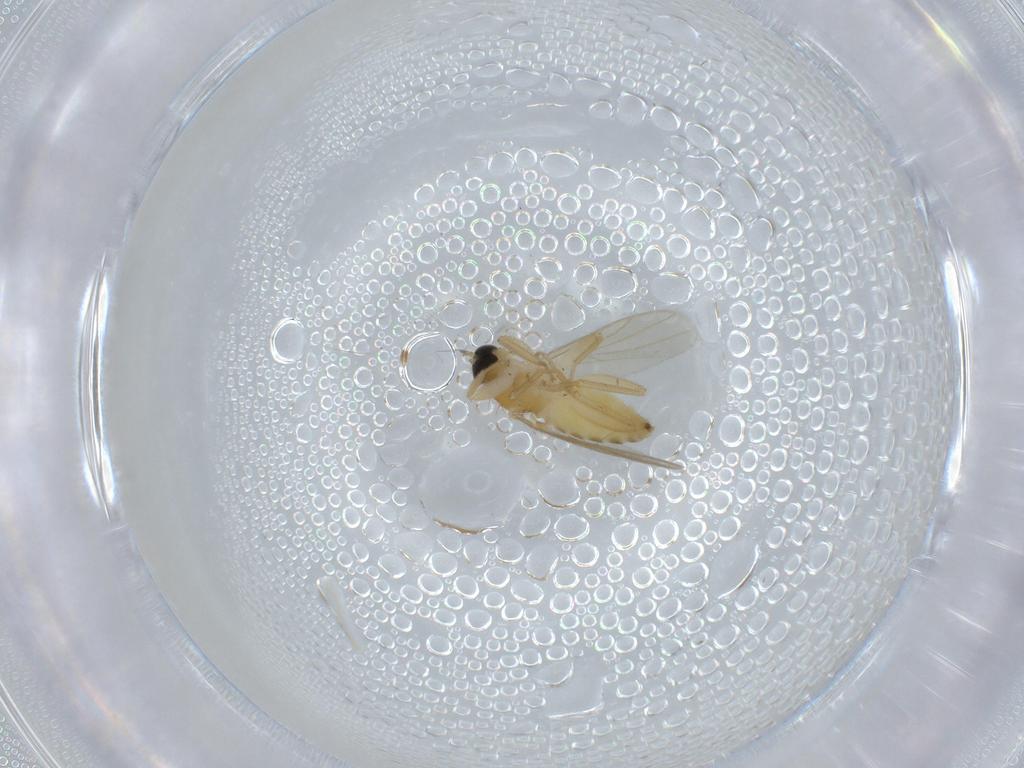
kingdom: Animalia
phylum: Arthropoda
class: Insecta
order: Diptera
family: Hybotidae
